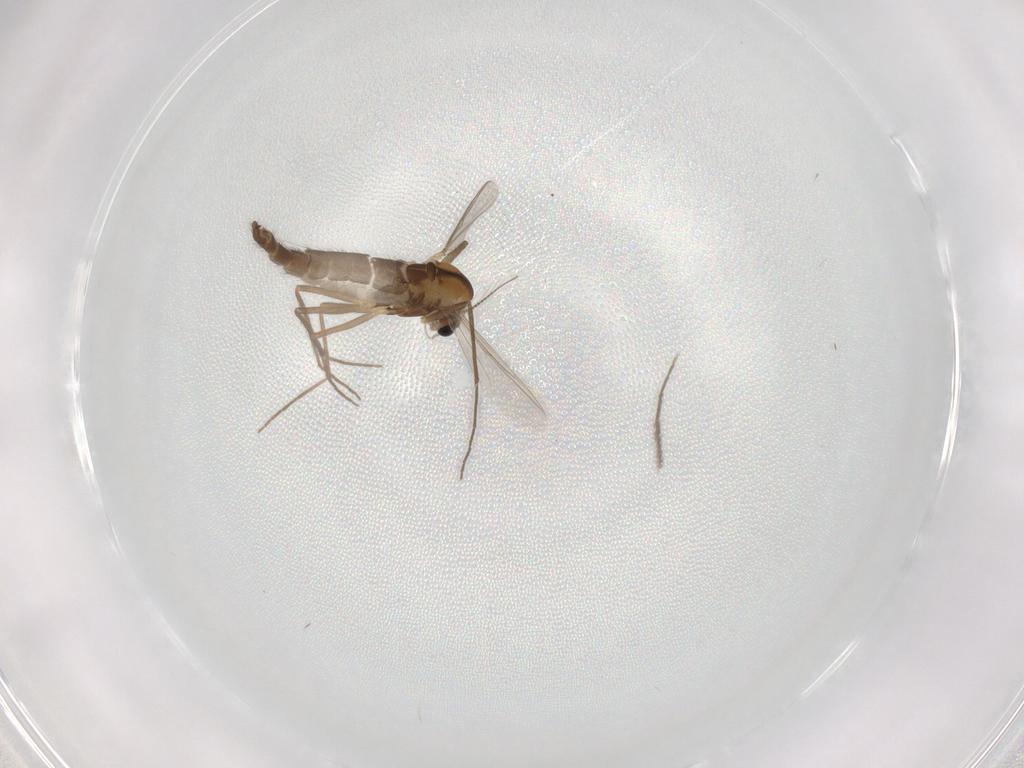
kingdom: Animalia
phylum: Arthropoda
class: Insecta
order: Diptera
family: Chironomidae
